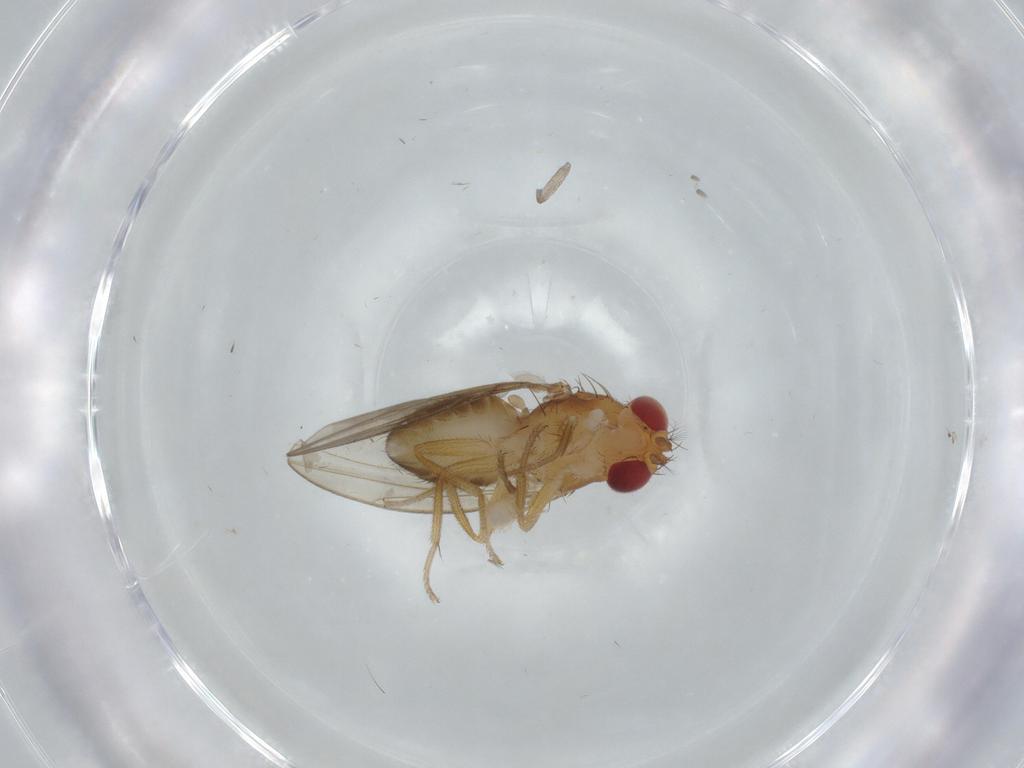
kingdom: Animalia
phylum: Arthropoda
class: Insecta
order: Diptera
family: Drosophilidae
